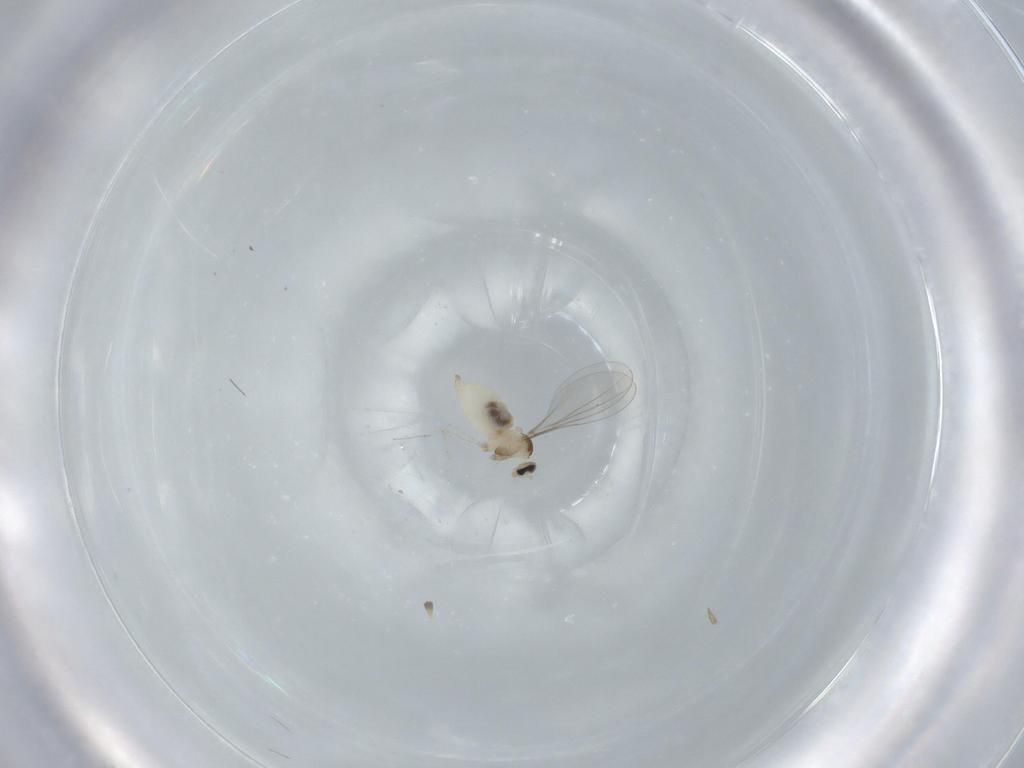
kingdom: Animalia
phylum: Arthropoda
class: Insecta
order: Diptera
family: Cecidomyiidae
